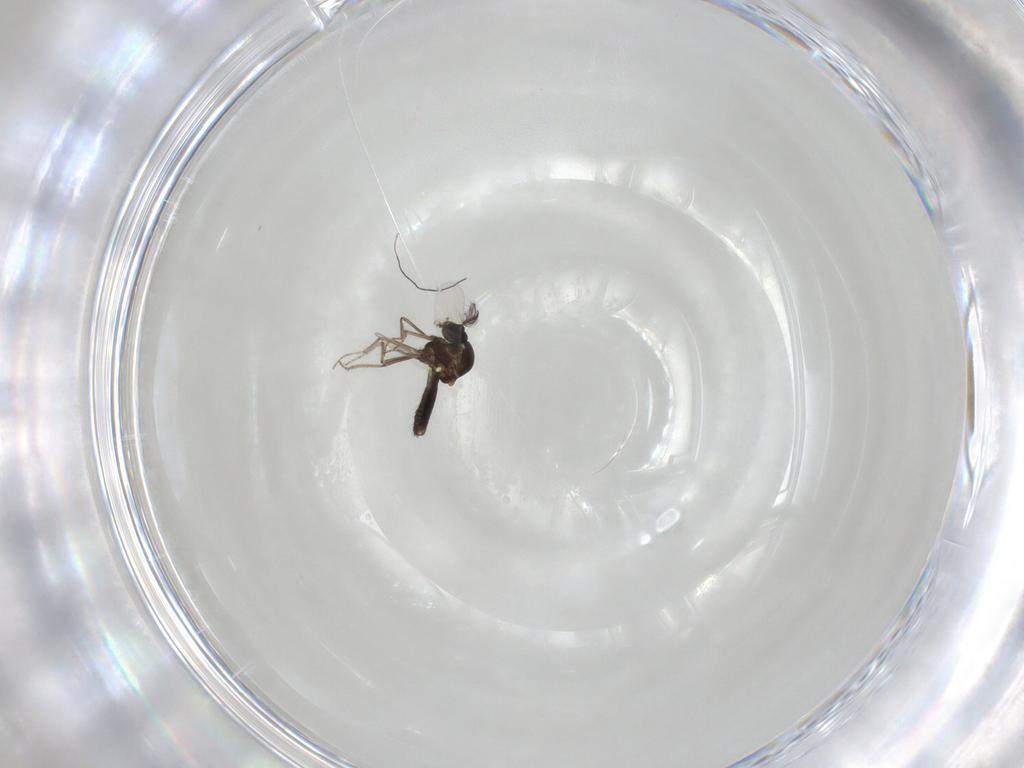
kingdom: Animalia
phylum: Arthropoda
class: Insecta
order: Diptera
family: Ceratopogonidae
